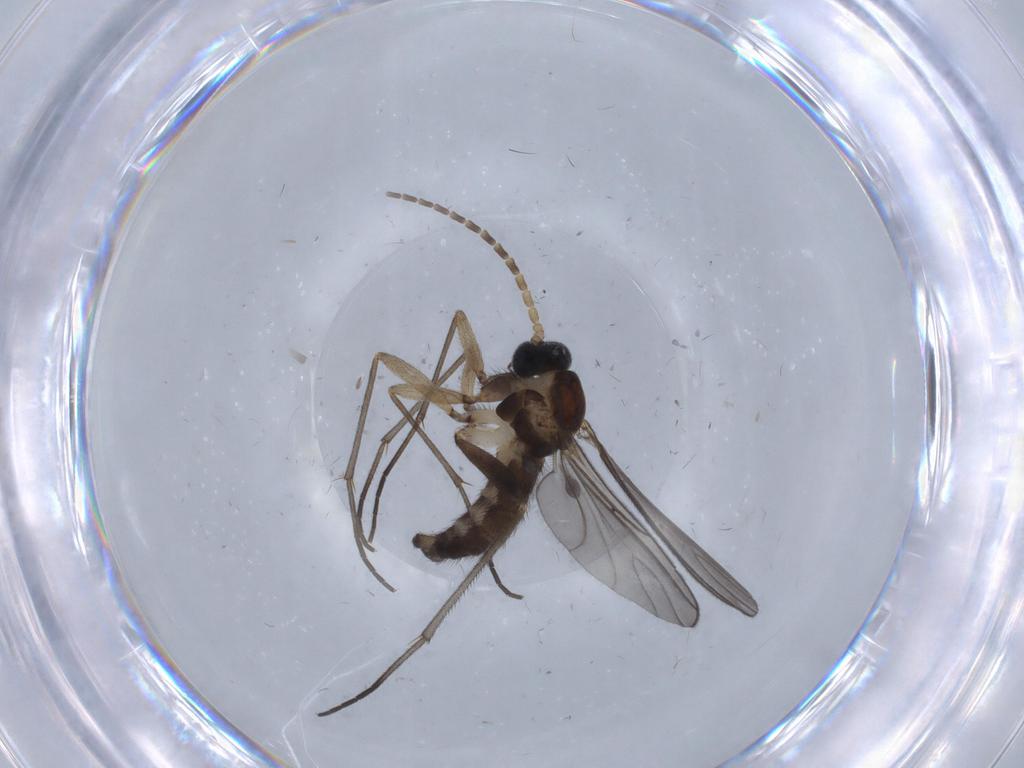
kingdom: Animalia
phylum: Arthropoda
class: Insecta
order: Diptera
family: Sciaridae
